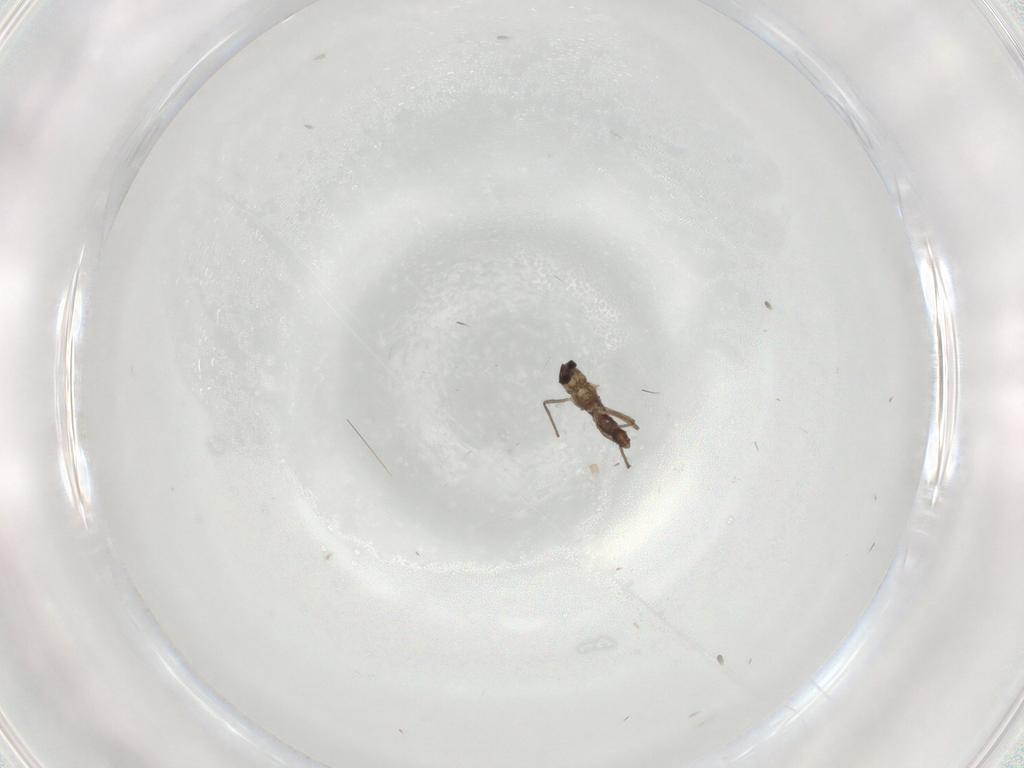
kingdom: Animalia
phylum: Arthropoda
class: Insecta
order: Diptera
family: Chironomidae
